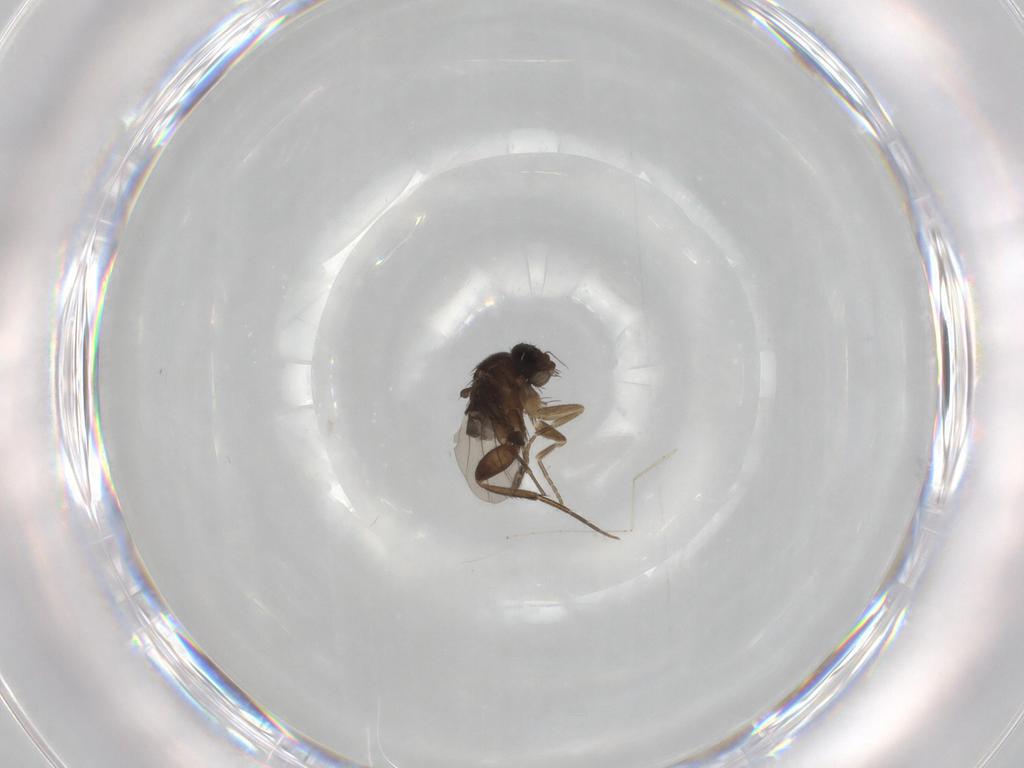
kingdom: Animalia
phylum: Arthropoda
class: Insecta
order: Diptera
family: Phoridae
